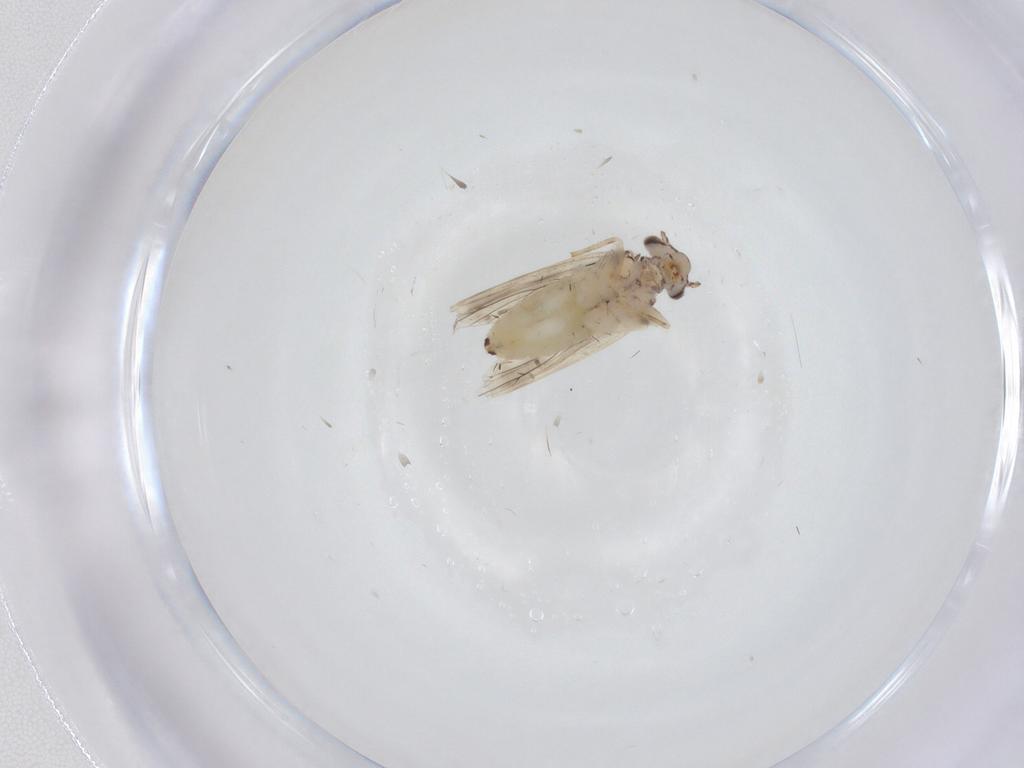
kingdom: Animalia
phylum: Arthropoda
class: Insecta
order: Psocodea
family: Lepidopsocidae
